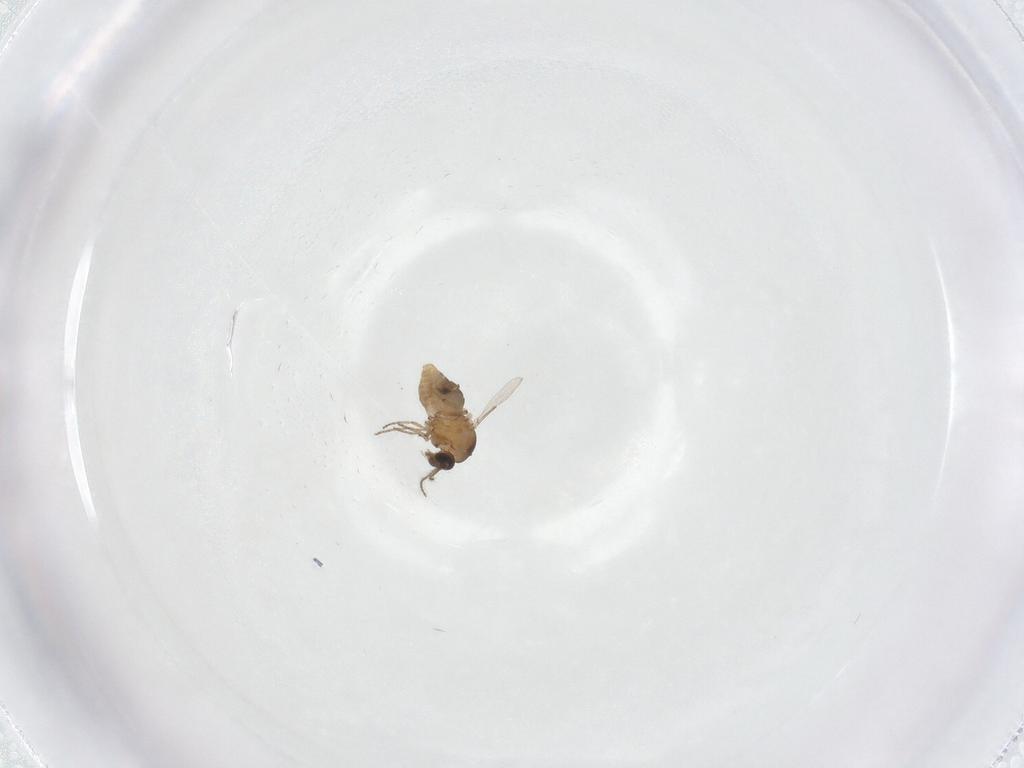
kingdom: Animalia
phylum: Arthropoda
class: Insecta
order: Diptera
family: Ceratopogonidae
